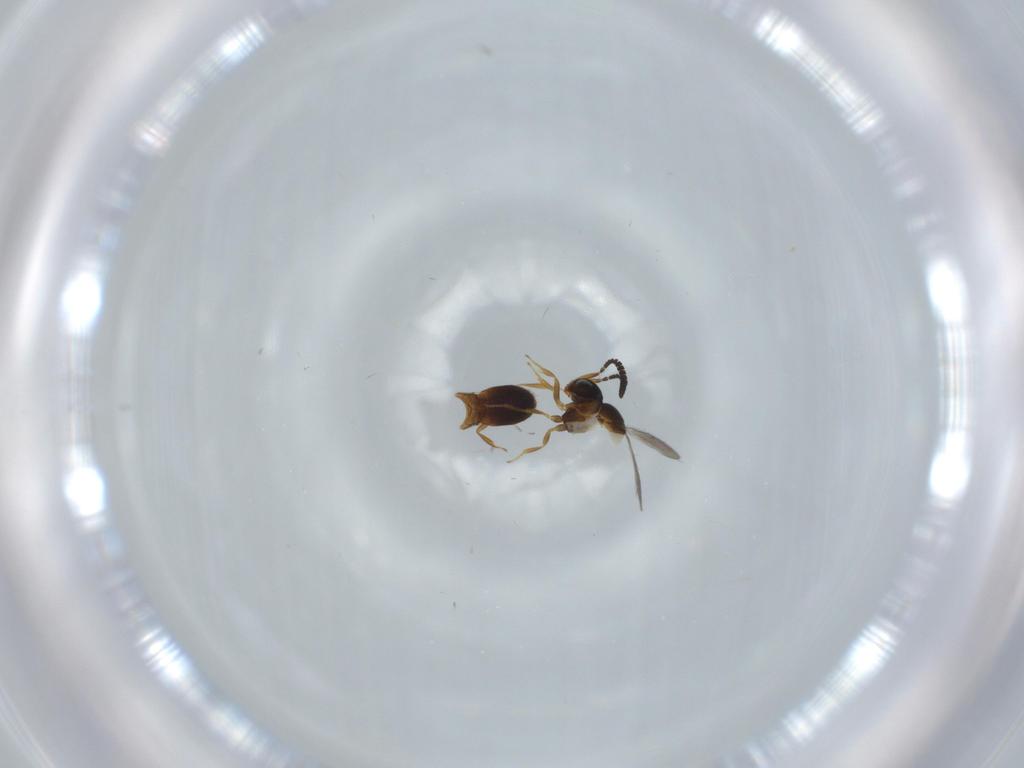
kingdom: Animalia
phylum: Arthropoda
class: Insecta
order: Hymenoptera
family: Scelionidae
